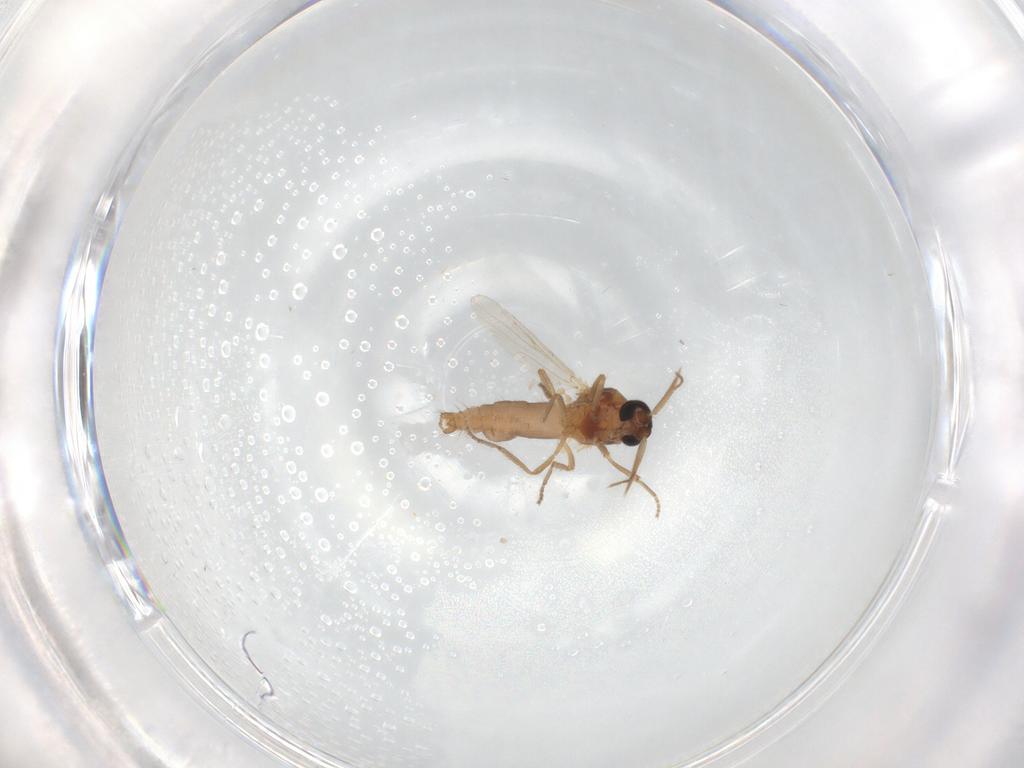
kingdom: Animalia
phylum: Arthropoda
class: Insecta
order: Diptera
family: Ceratopogonidae
